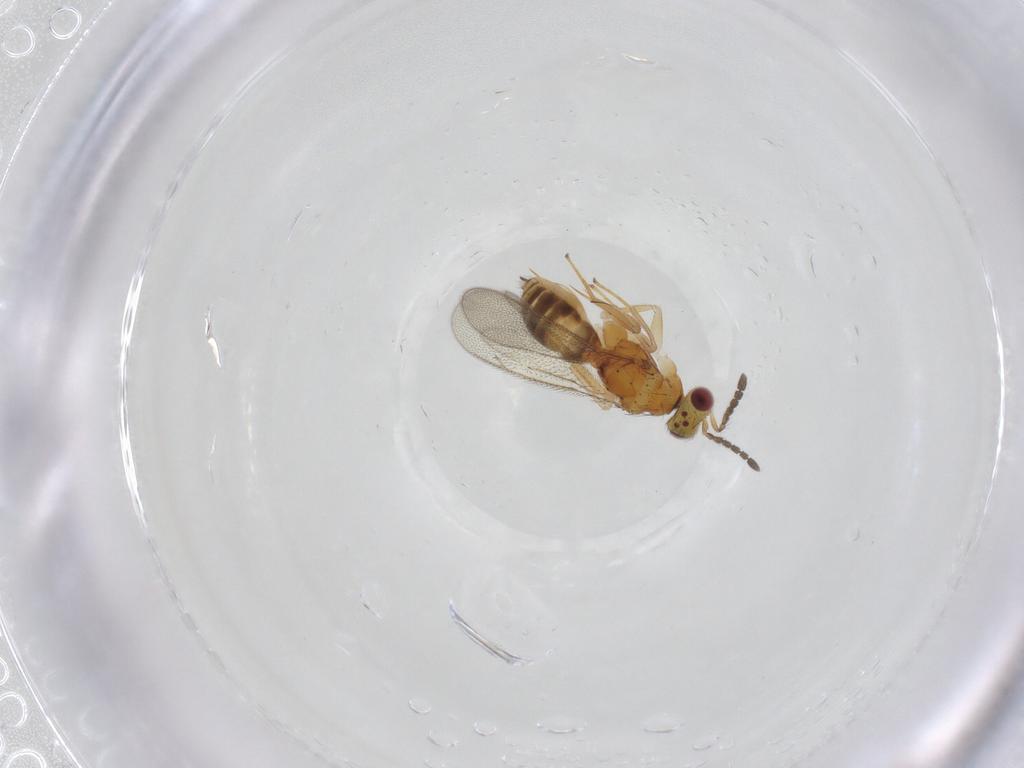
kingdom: Animalia
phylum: Arthropoda
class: Insecta
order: Hymenoptera
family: Eulophidae
